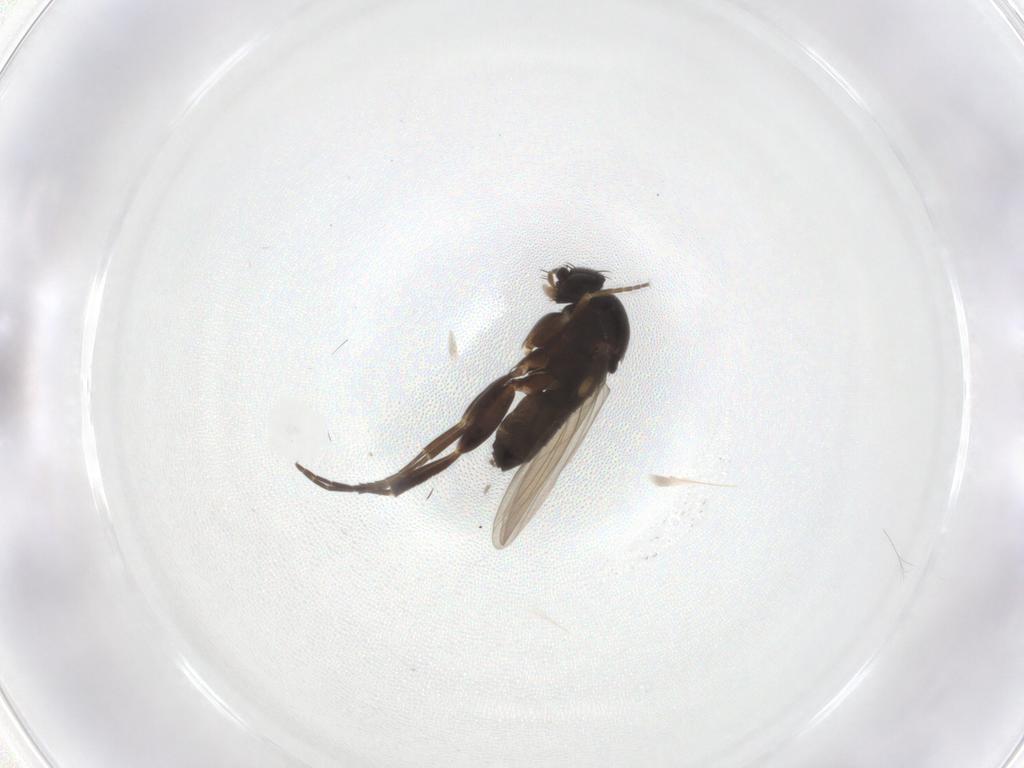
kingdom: Animalia
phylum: Arthropoda
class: Insecta
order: Diptera
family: Phoridae
